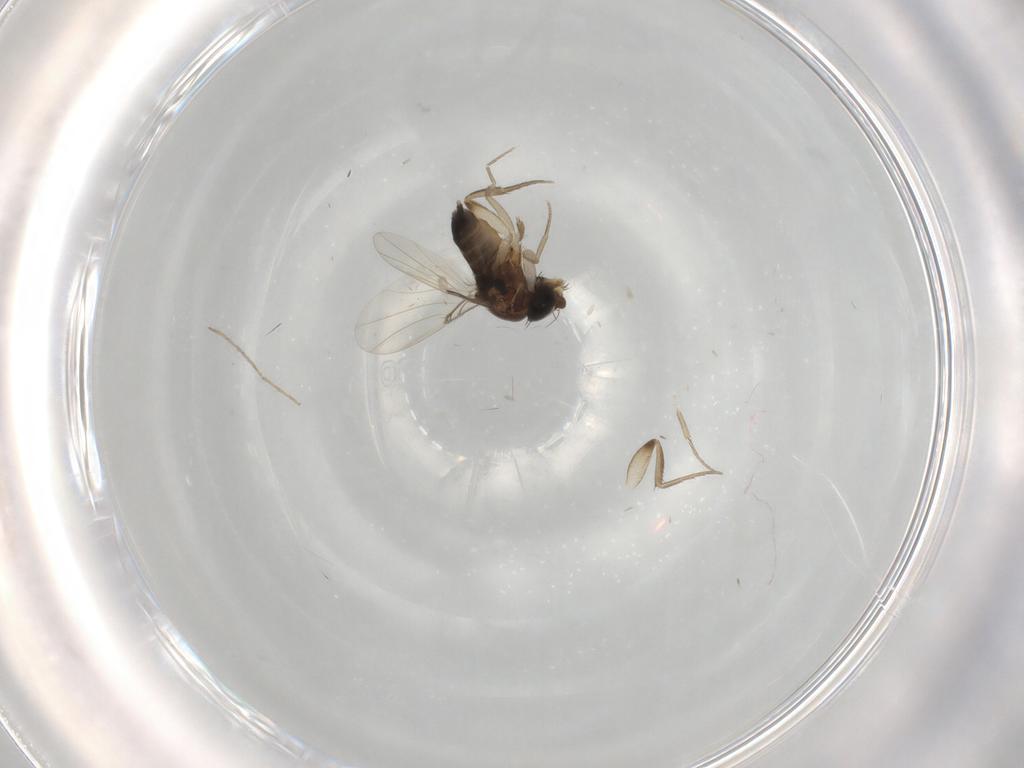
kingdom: Animalia
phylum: Arthropoda
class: Insecta
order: Diptera
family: Phoridae
